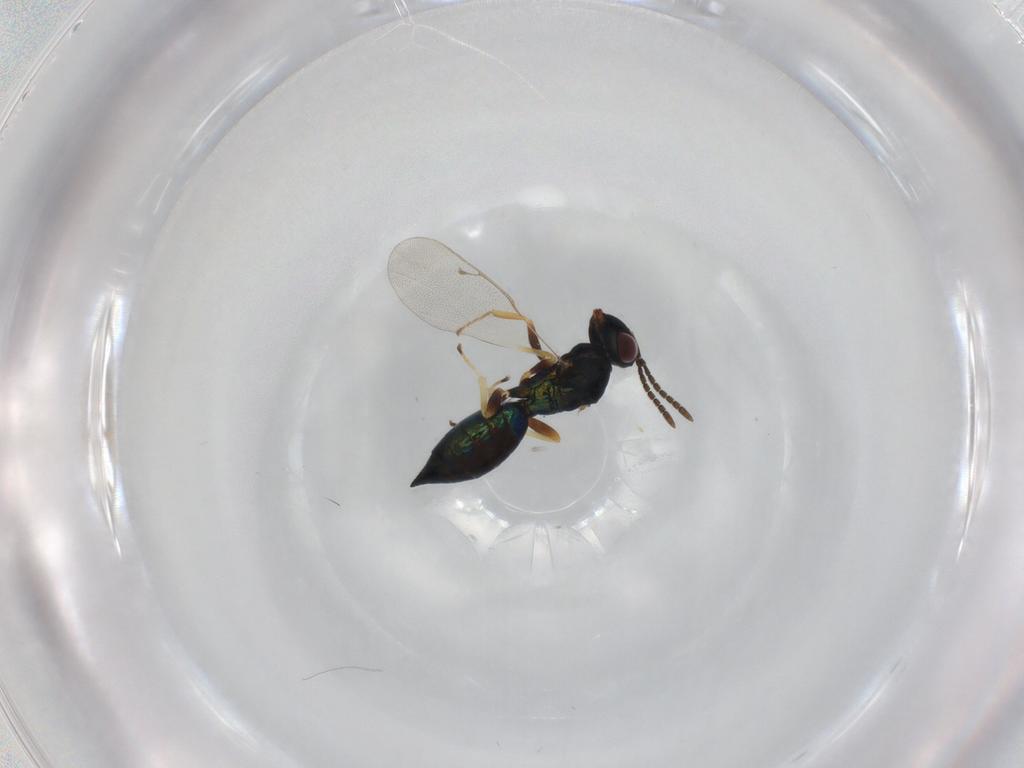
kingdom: Animalia
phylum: Arthropoda
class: Insecta
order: Hymenoptera
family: Pteromalidae
